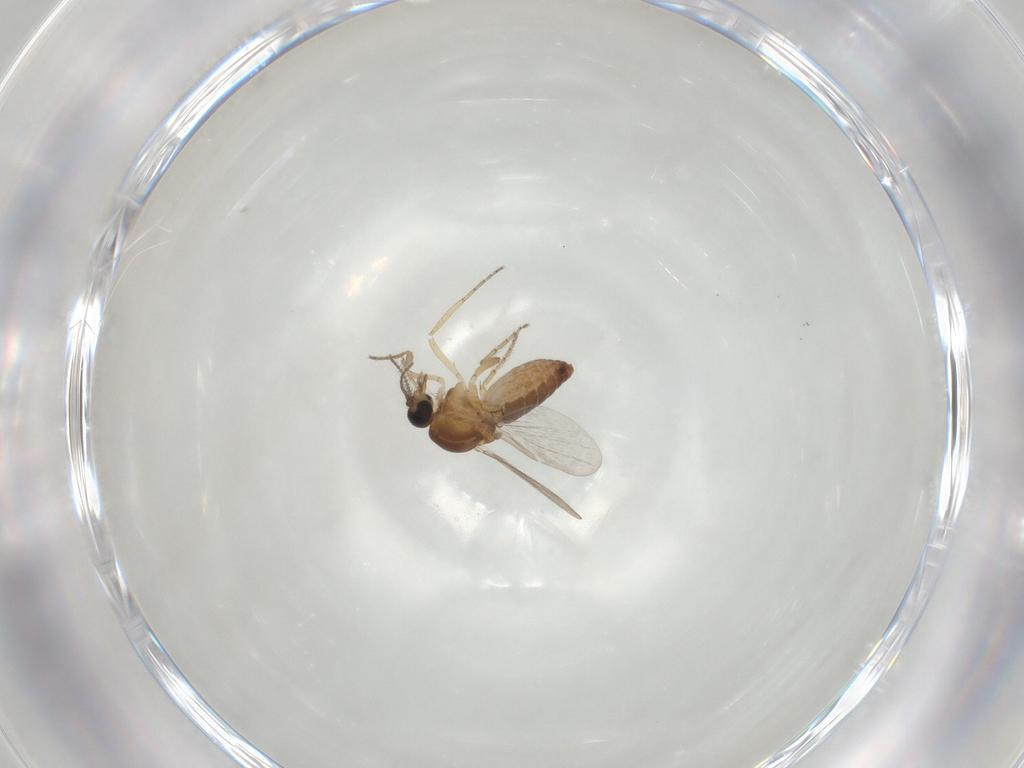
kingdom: Animalia
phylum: Arthropoda
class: Insecta
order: Diptera
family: Ceratopogonidae
